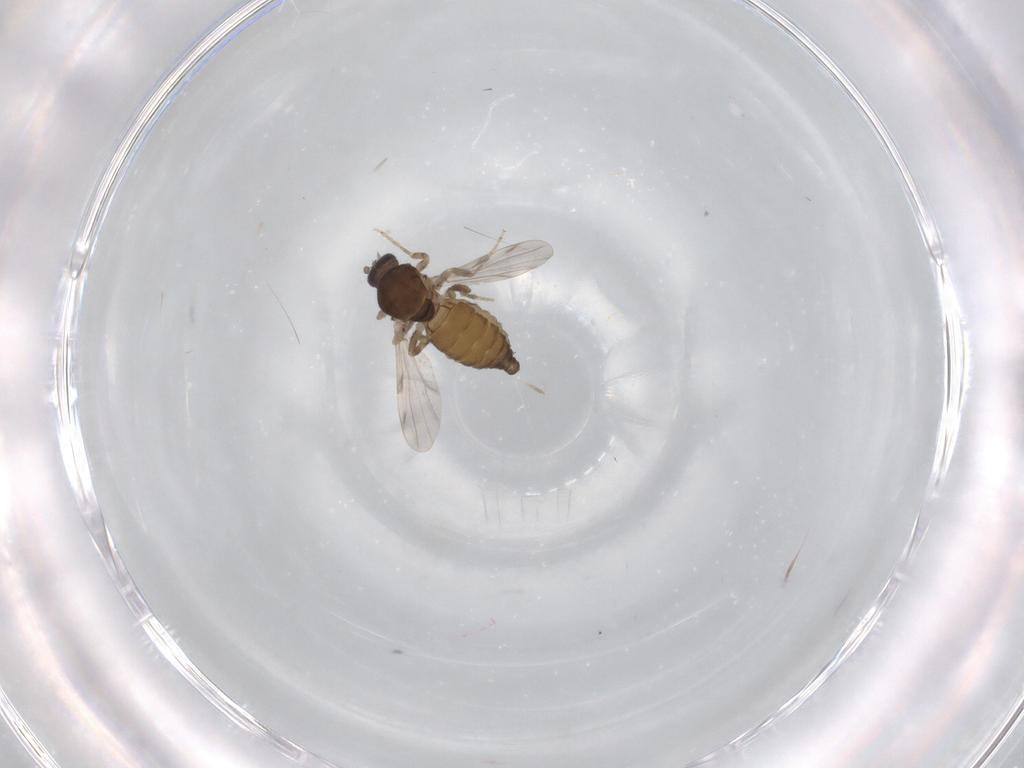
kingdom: Animalia
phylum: Arthropoda
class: Insecta
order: Diptera
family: Ceratopogonidae
